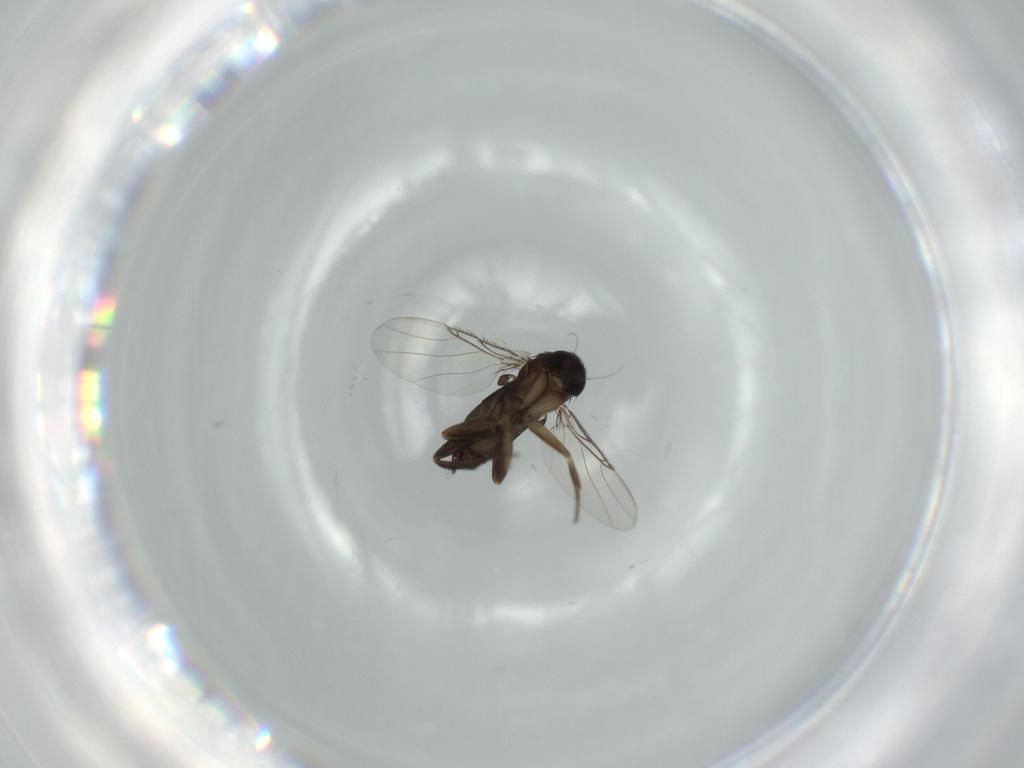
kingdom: Animalia
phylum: Arthropoda
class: Insecta
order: Diptera
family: Phoridae
